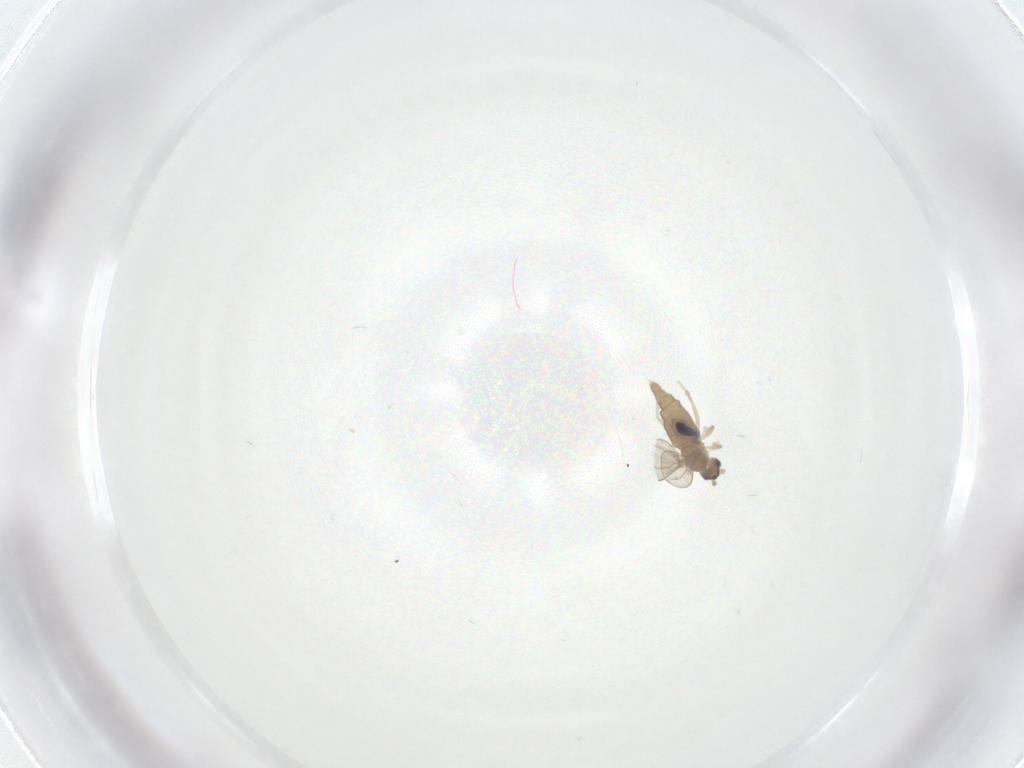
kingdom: Animalia
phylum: Arthropoda
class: Insecta
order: Diptera
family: Limoniidae
